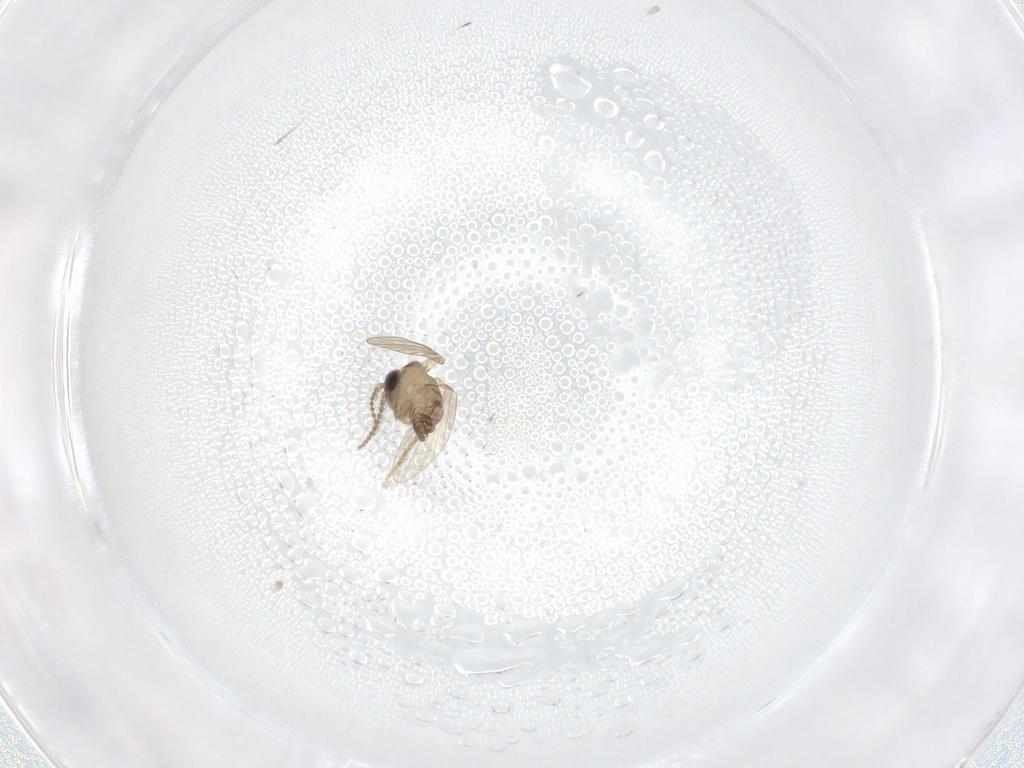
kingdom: Animalia
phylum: Arthropoda
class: Insecta
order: Diptera
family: Psychodidae
